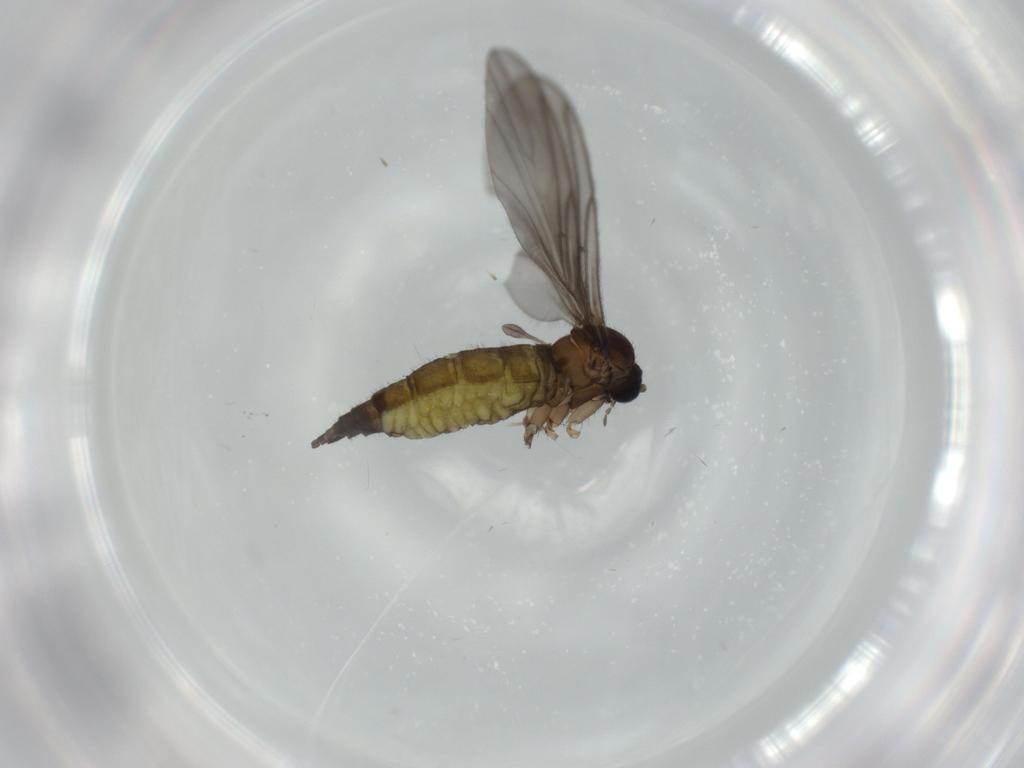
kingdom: Animalia
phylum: Arthropoda
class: Insecta
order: Diptera
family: Sciaridae
